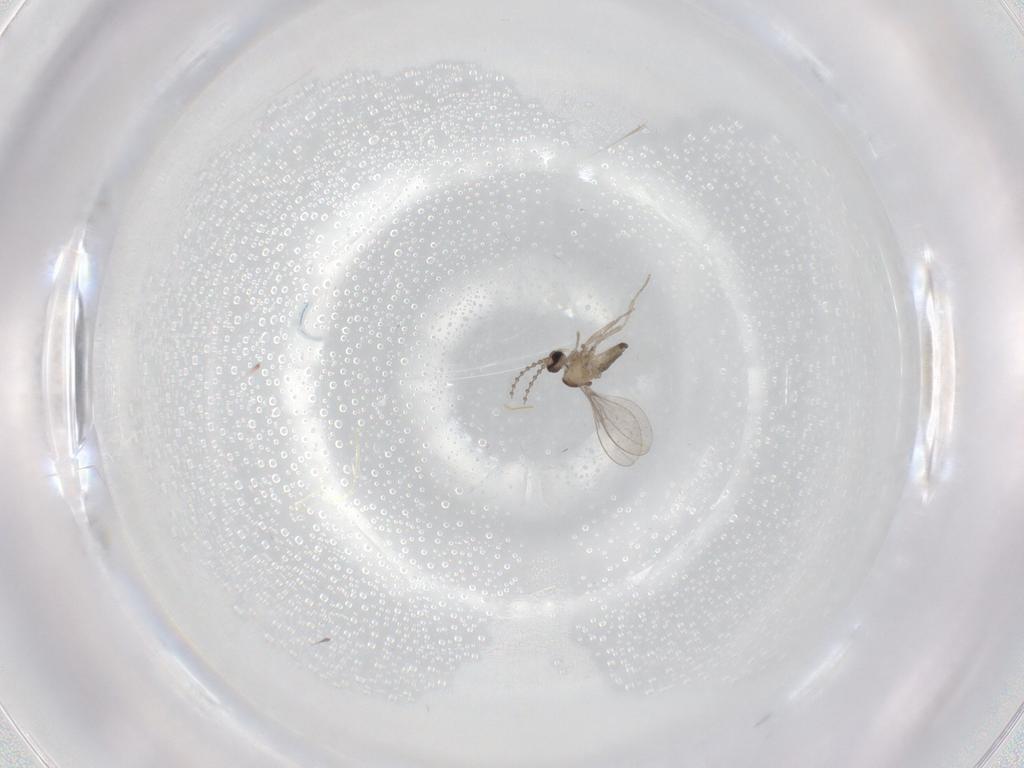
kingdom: Animalia
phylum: Arthropoda
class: Insecta
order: Diptera
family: Cecidomyiidae
